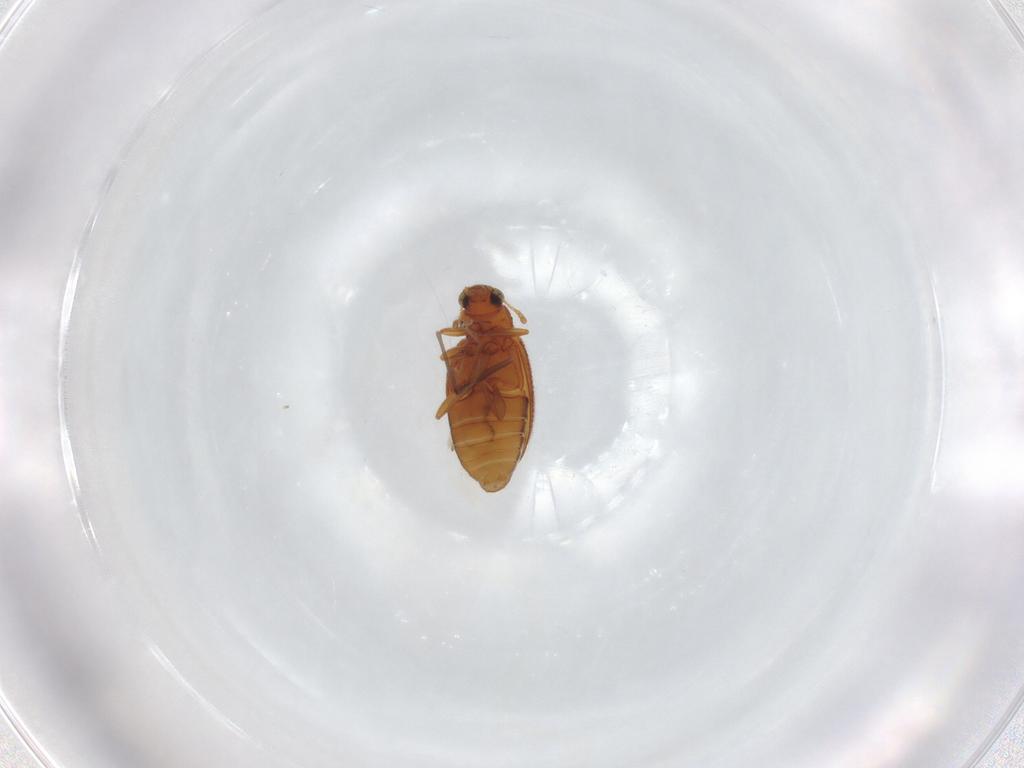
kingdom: Animalia
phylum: Arthropoda
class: Insecta
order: Coleoptera
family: Latridiidae
